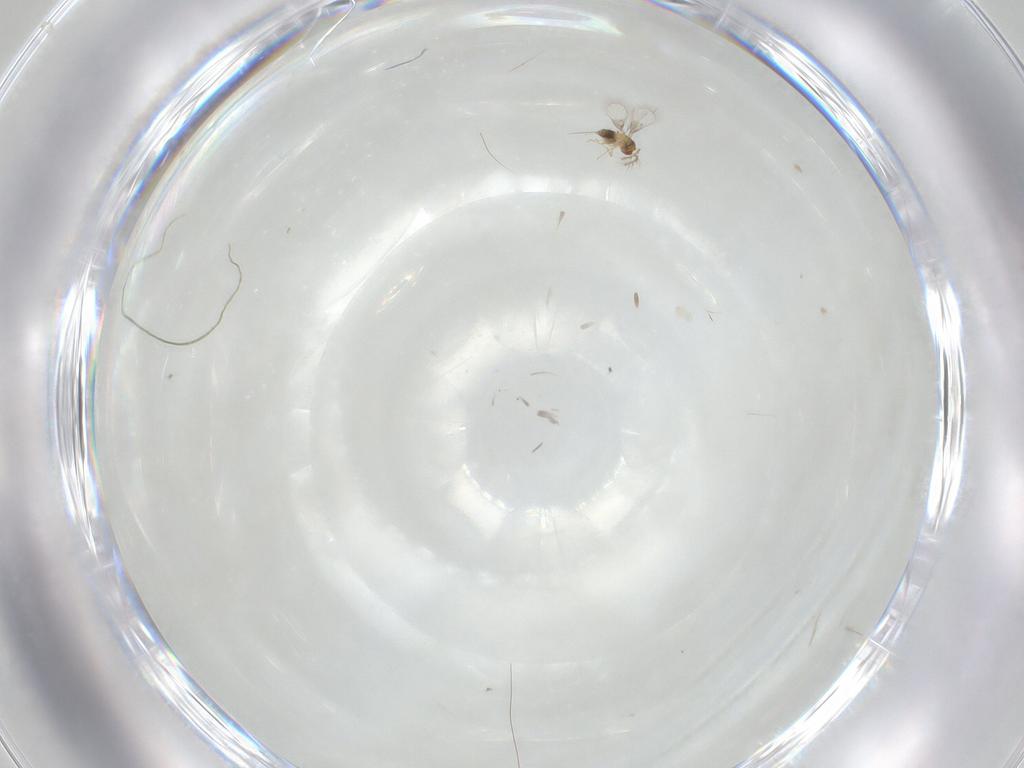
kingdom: Animalia
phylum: Arthropoda
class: Insecta
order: Hymenoptera
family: Trichogrammatidae
